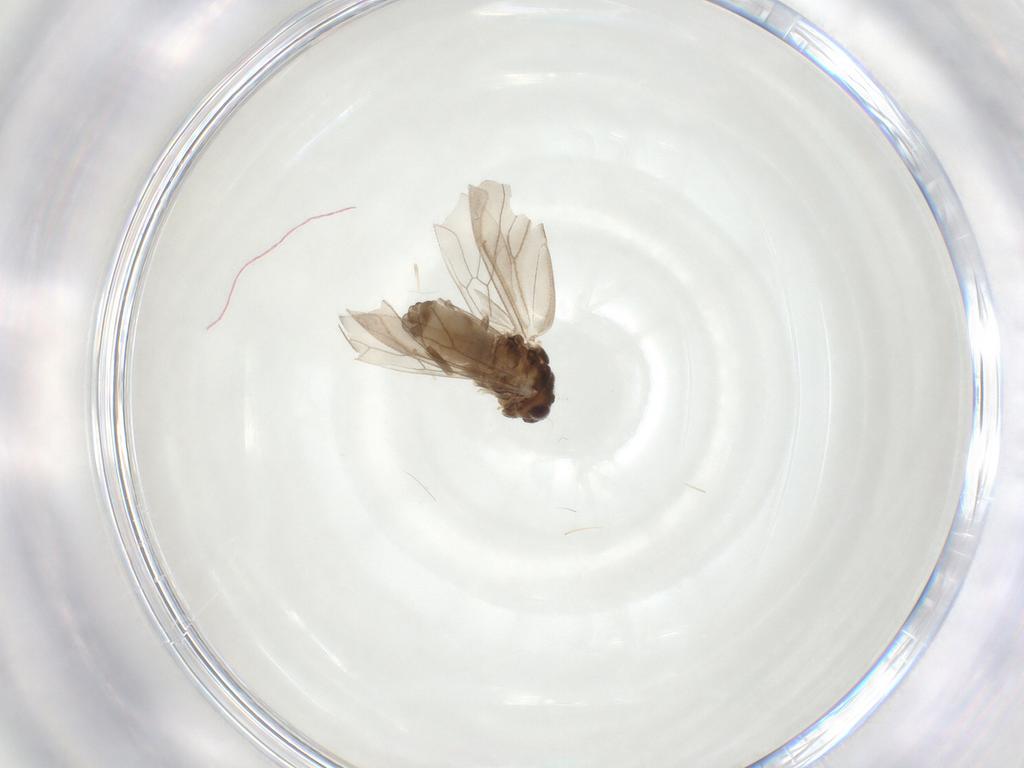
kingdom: Animalia
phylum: Arthropoda
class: Insecta
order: Psocodea
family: Caeciliusidae
